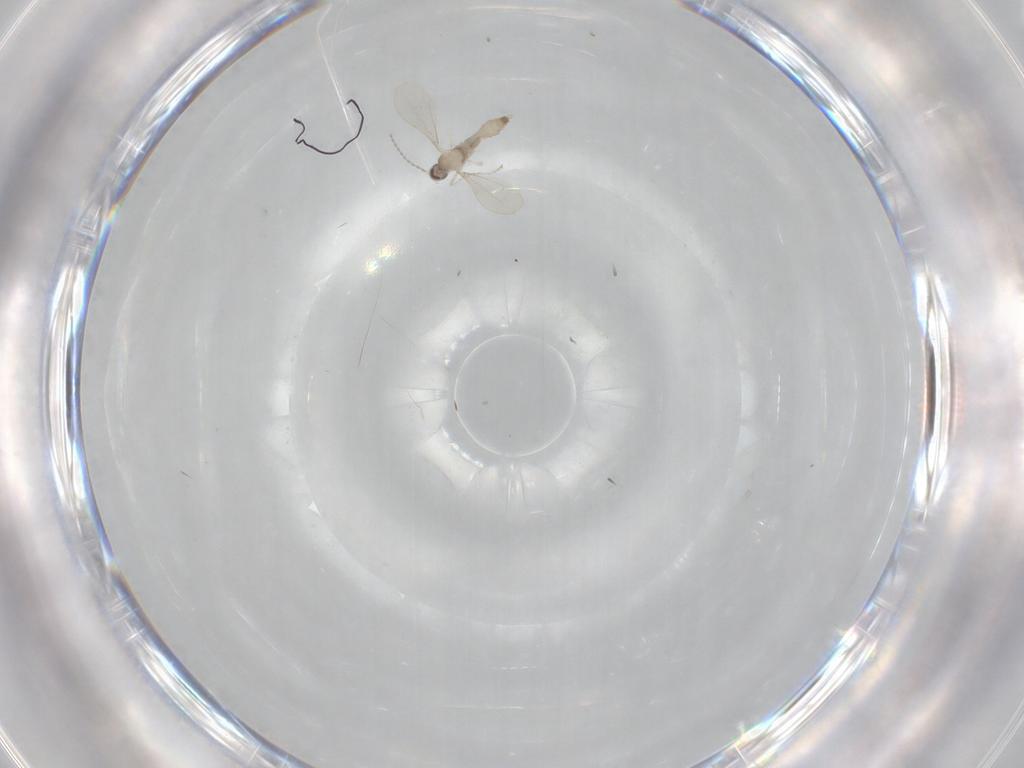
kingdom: Animalia
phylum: Arthropoda
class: Insecta
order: Diptera
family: Cecidomyiidae
